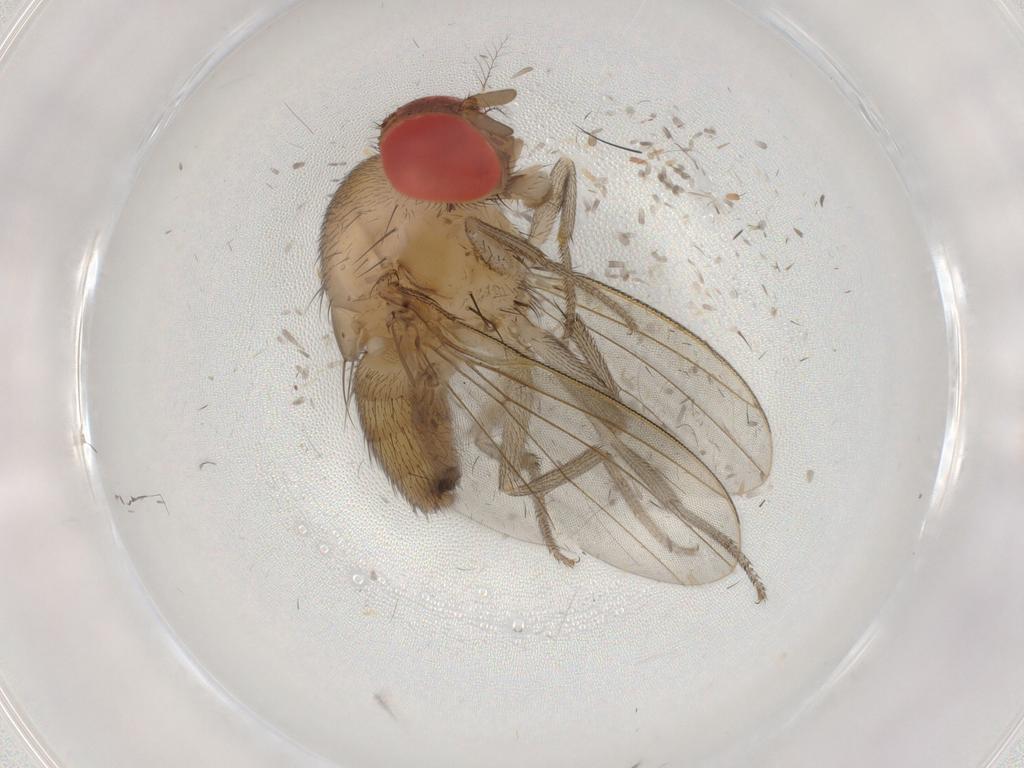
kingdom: Animalia
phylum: Arthropoda
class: Insecta
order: Diptera
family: Drosophilidae
